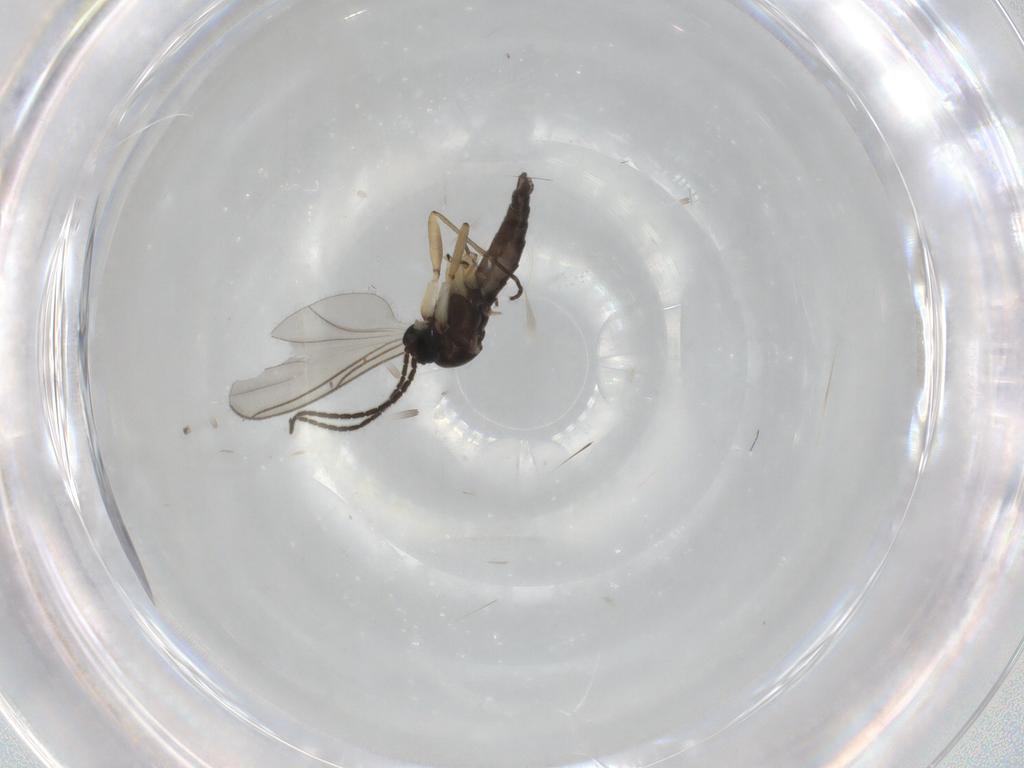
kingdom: Animalia
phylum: Arthropoda
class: Insecta
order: Diptera
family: Sciaridae
